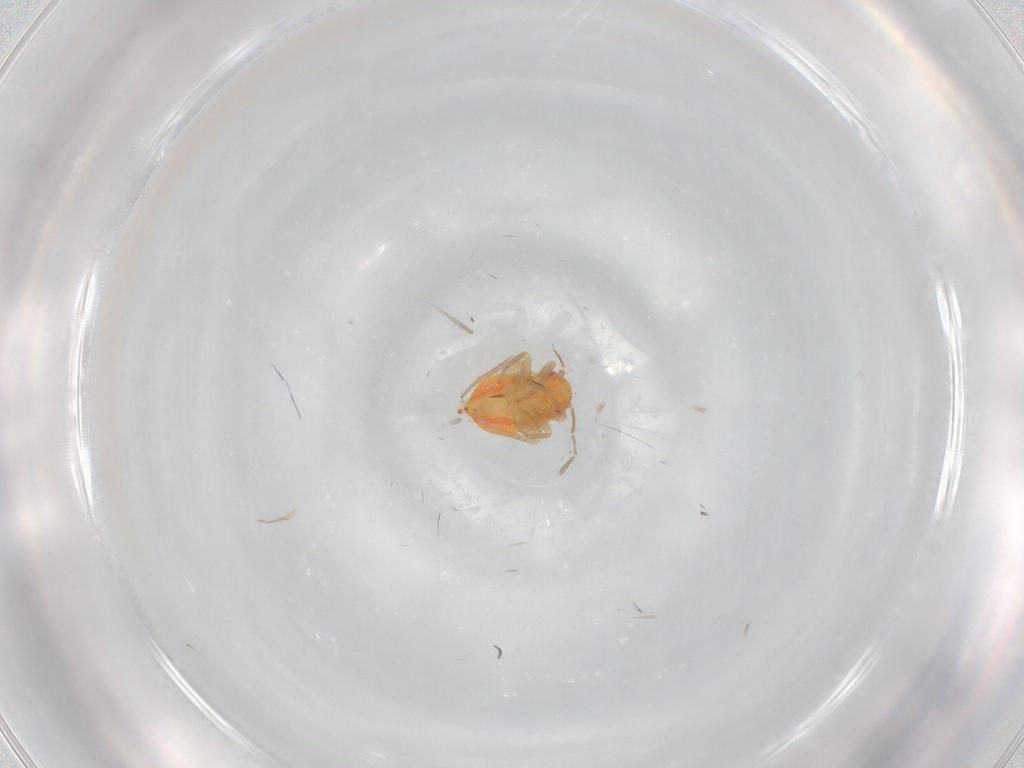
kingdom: Animalia
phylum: Arthropoda
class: Insecta
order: Hemiptera
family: Miridae
